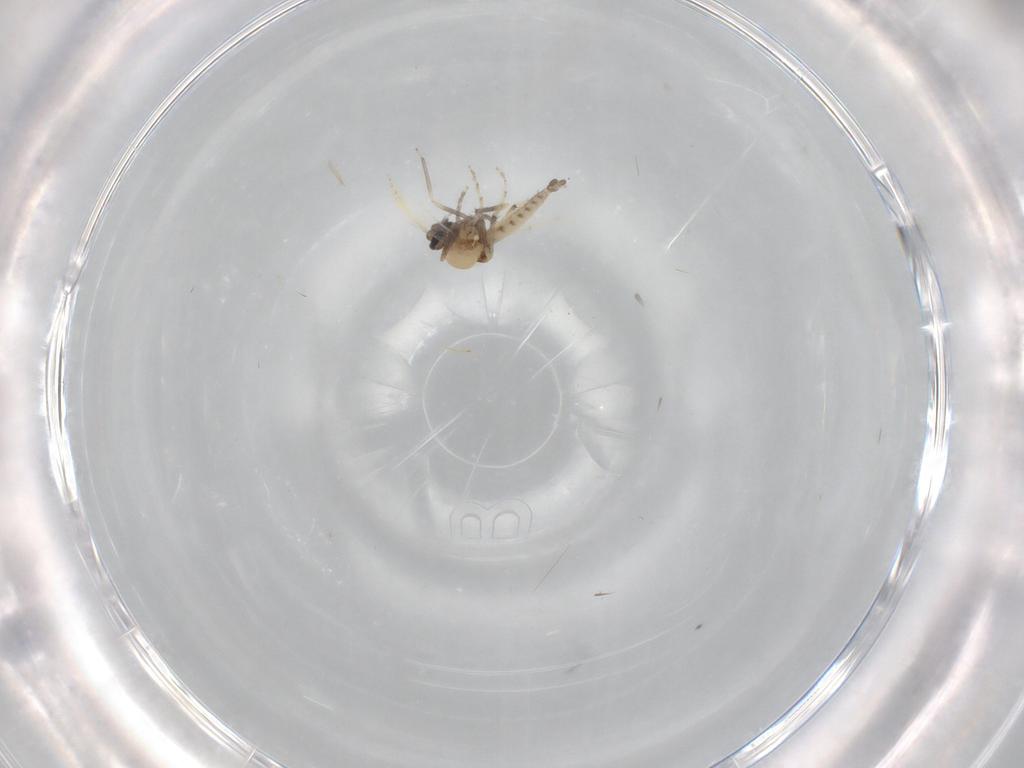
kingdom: Animalia
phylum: Arthropoda
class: Insecta
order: Diptera
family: Ceratopogonidae
